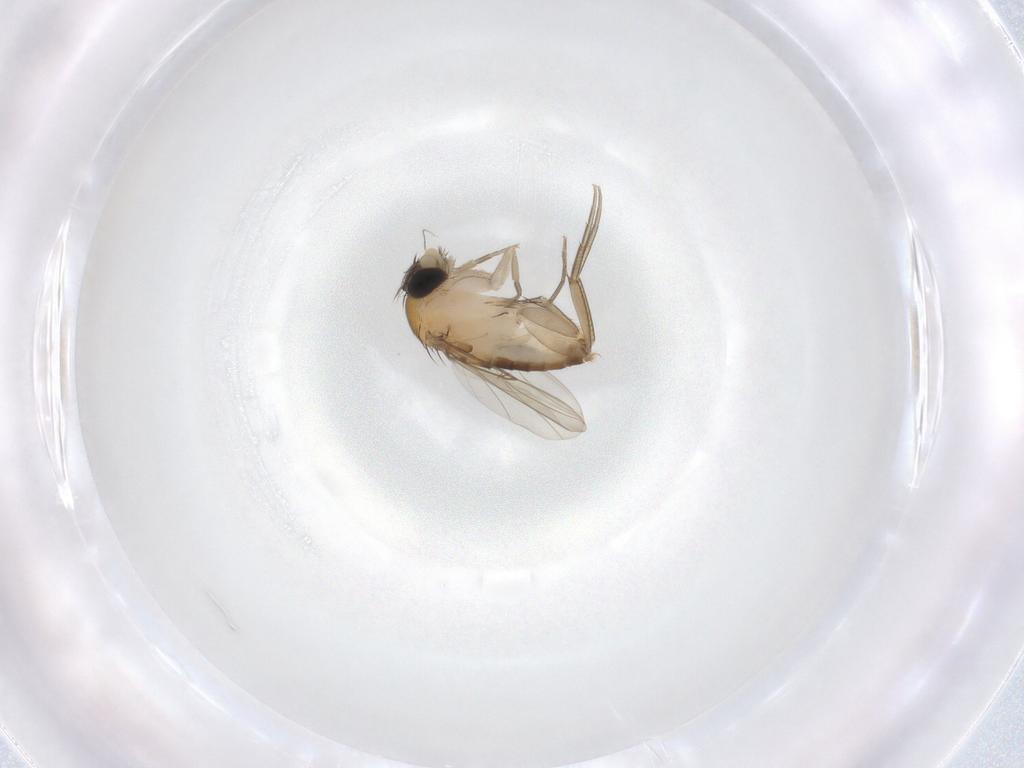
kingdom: Animalia
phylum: Arthropoda
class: Insecta
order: Diptera
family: Phoridae
